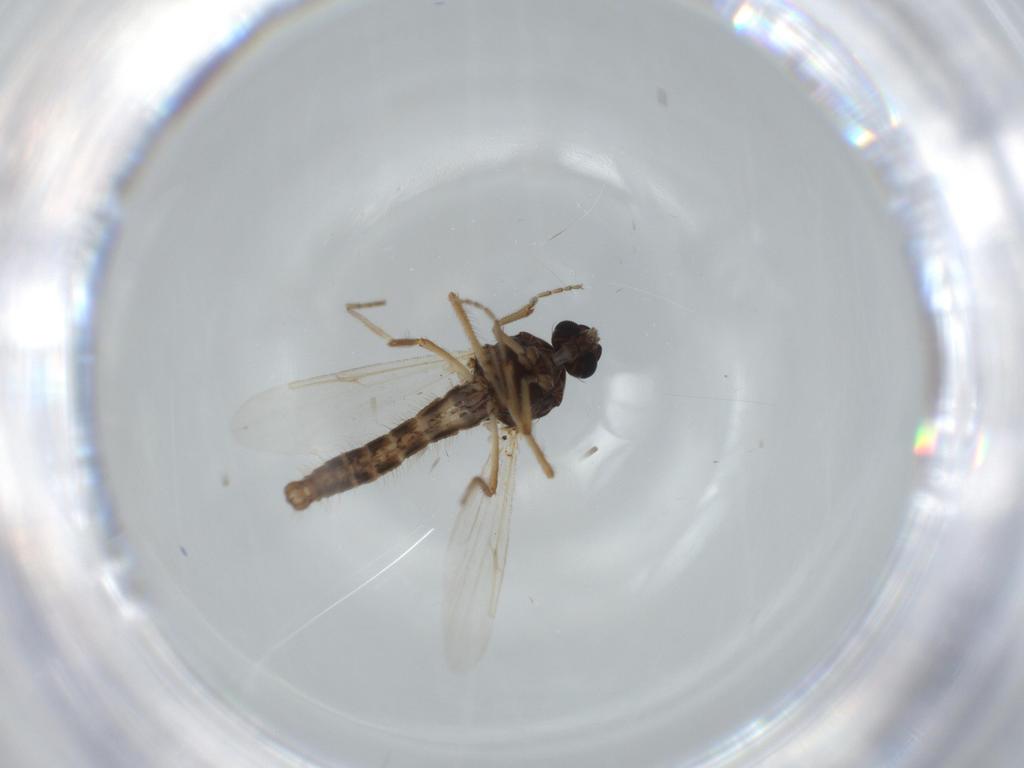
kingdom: Animalia
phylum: Arthropoda
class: Insecta
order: Diptera
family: Ceratopogonidae
